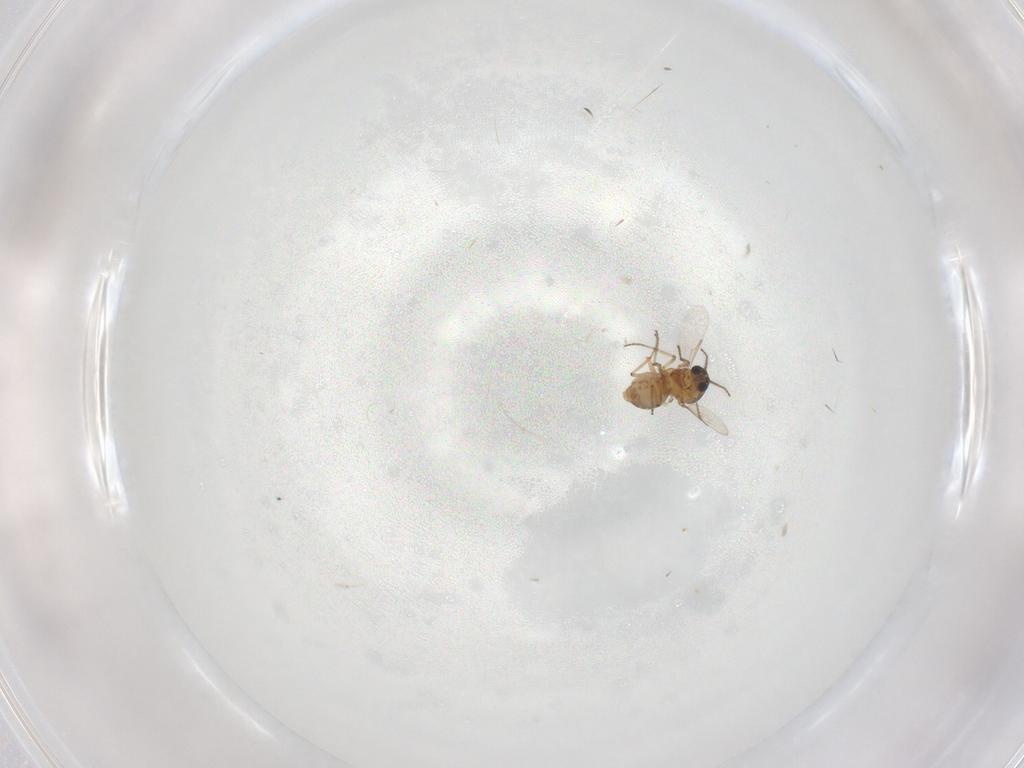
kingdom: Animalia
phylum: Arthropoda
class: Insecta
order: Diptera
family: Ceratopogonidae
